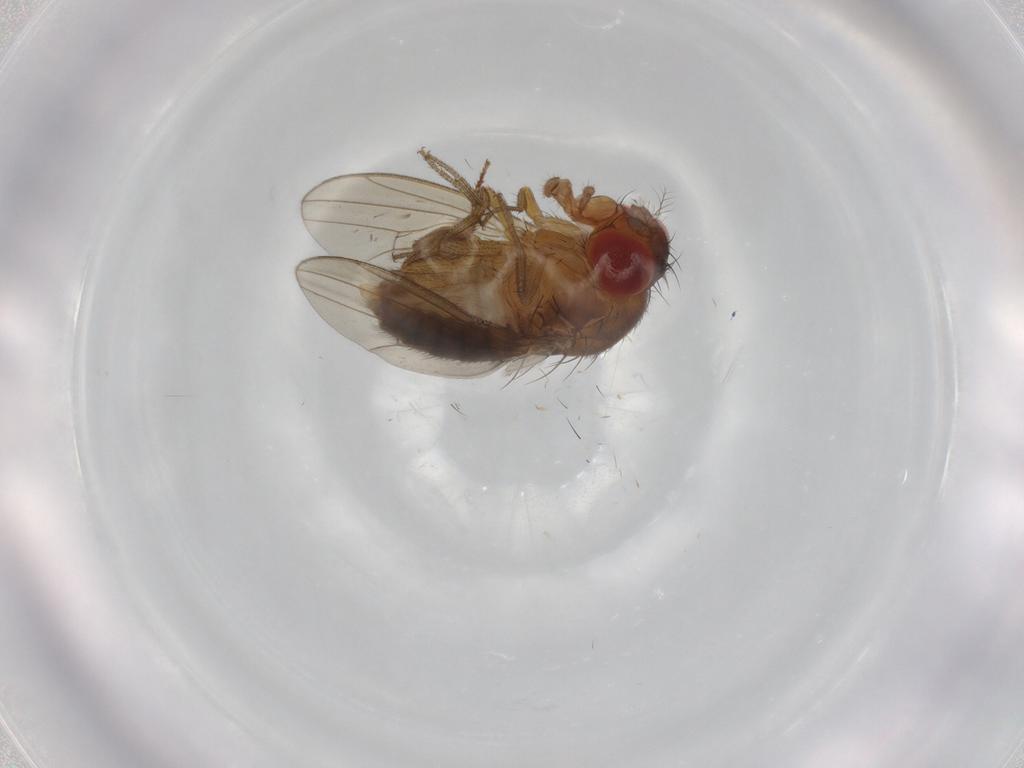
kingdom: Animalia
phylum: Arthropoda
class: Insecta
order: Diptera
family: Drosophilidae
